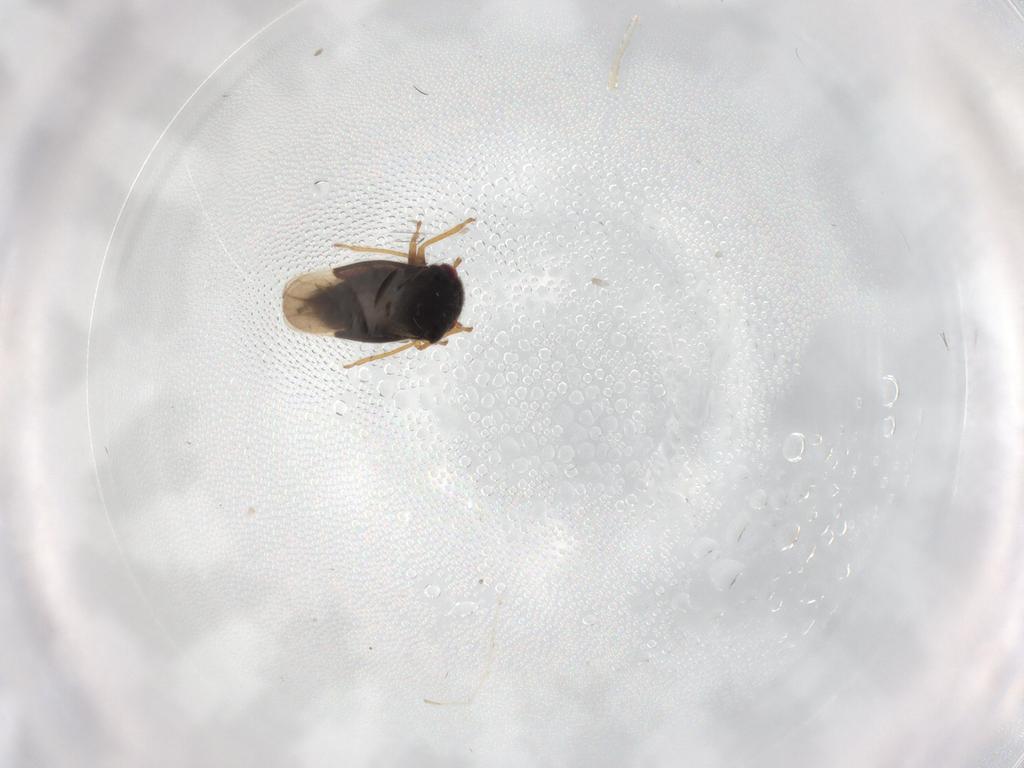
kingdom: Animalia
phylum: Arthropoda
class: Insecta
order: Hemiptera
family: Schizopteridae
